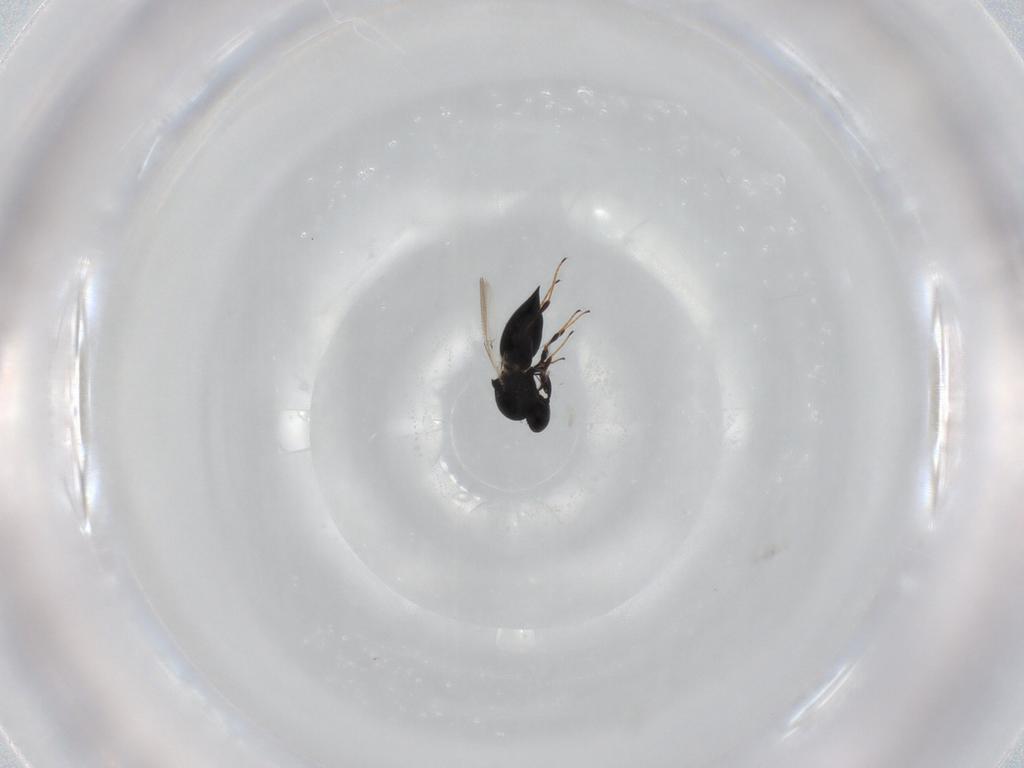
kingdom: Animalia
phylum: Arthropoda
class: Insecta
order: Hymenoptera
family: Platygastridae
